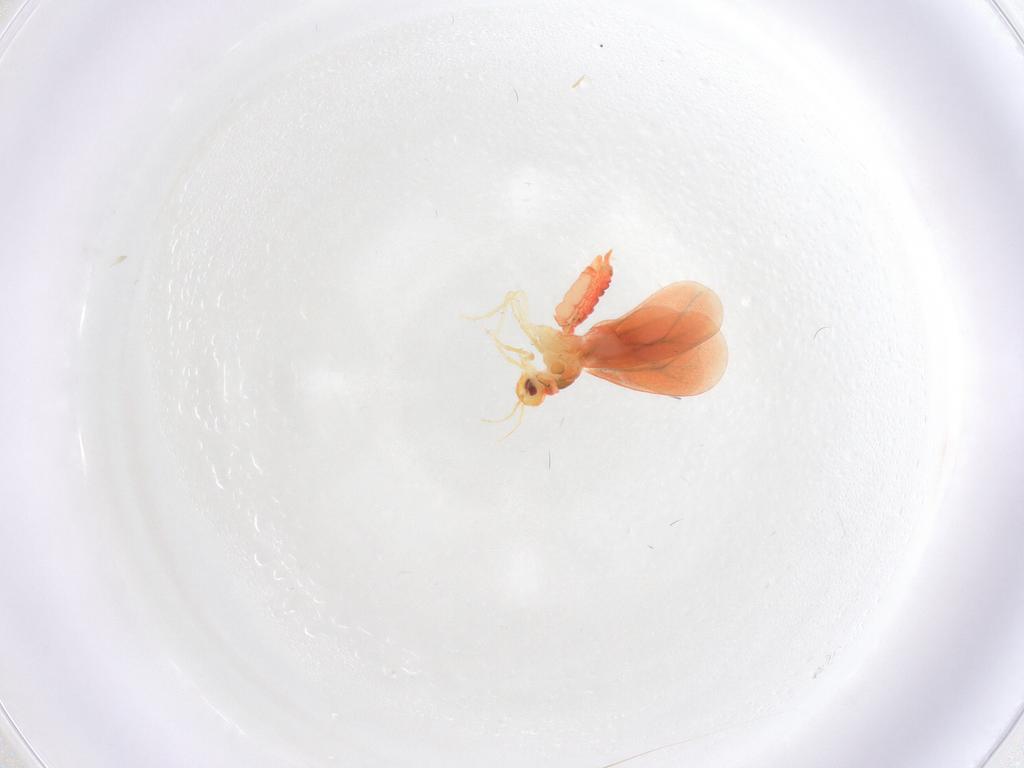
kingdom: Animalia
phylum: Arthropoda
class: Insecta
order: Hemiptera
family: Aleyrodidae
